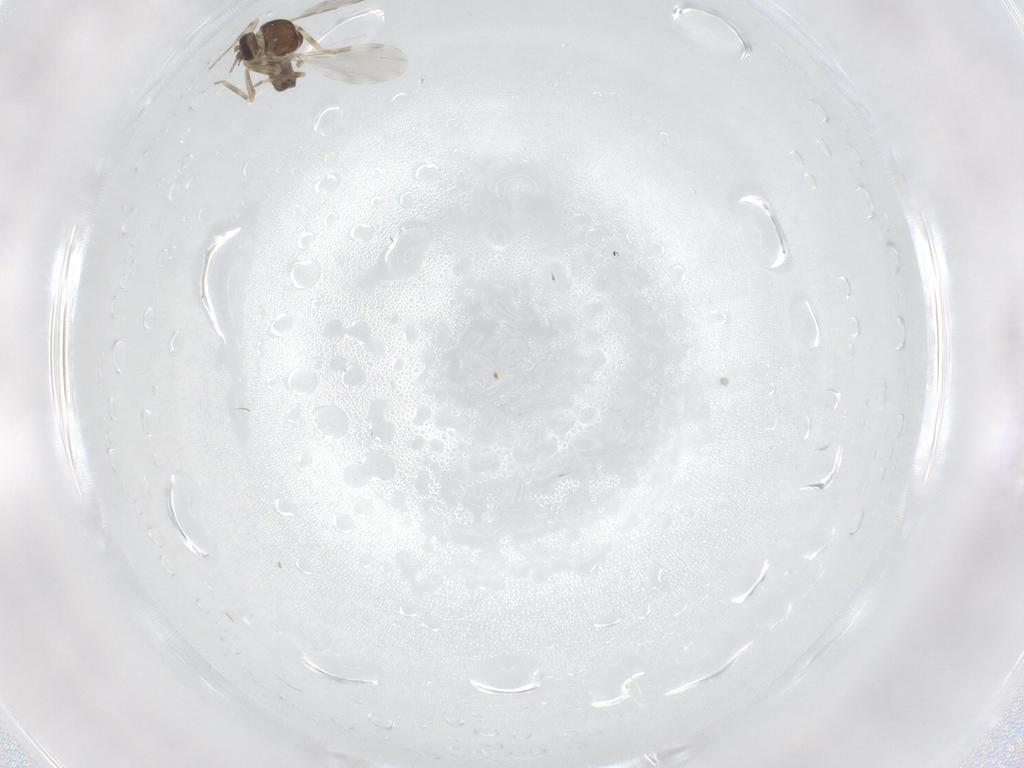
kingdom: Animalia
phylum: Arthropoda
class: Insecta
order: Diptera
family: Ceratopogonidae
